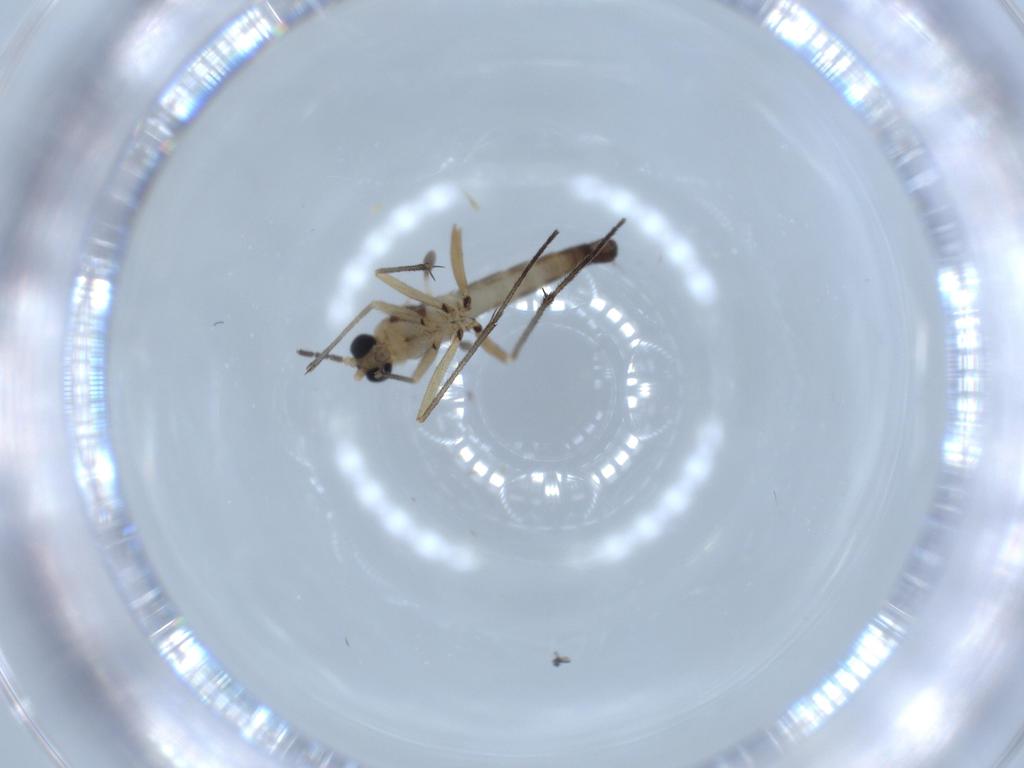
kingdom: Animalia
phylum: Arthropoda
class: Insecta
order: Diptera
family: Sciaridae
